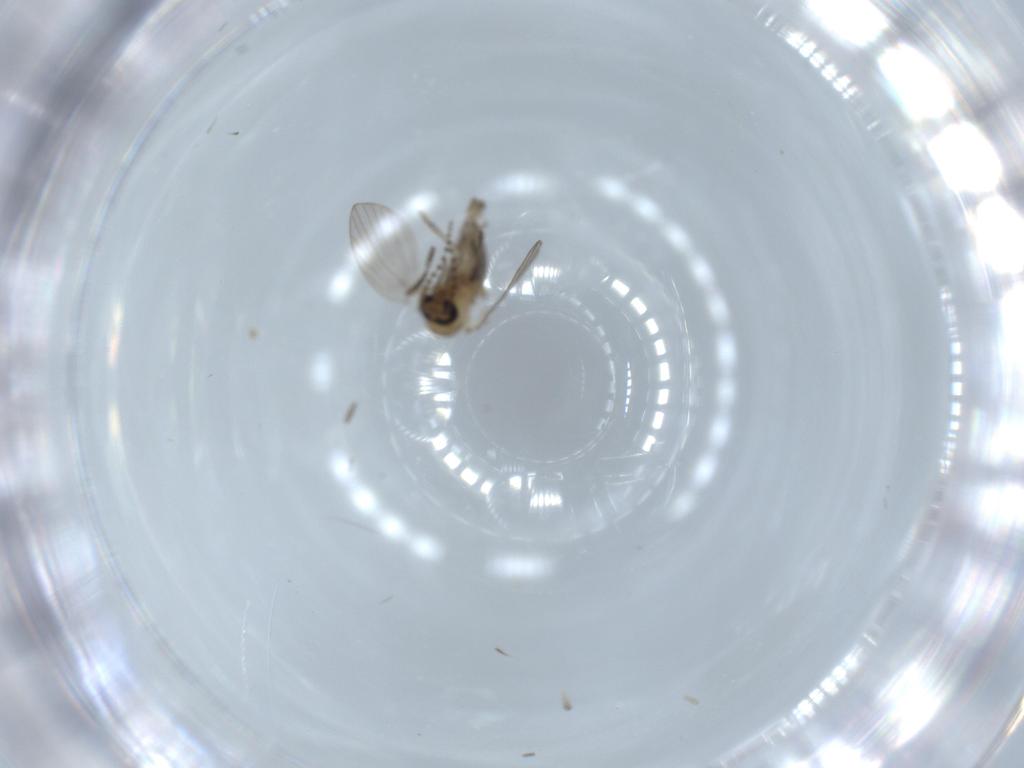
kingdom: Animalia
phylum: Arthropoda
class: Insecta
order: Diptera
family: Psychodidae
